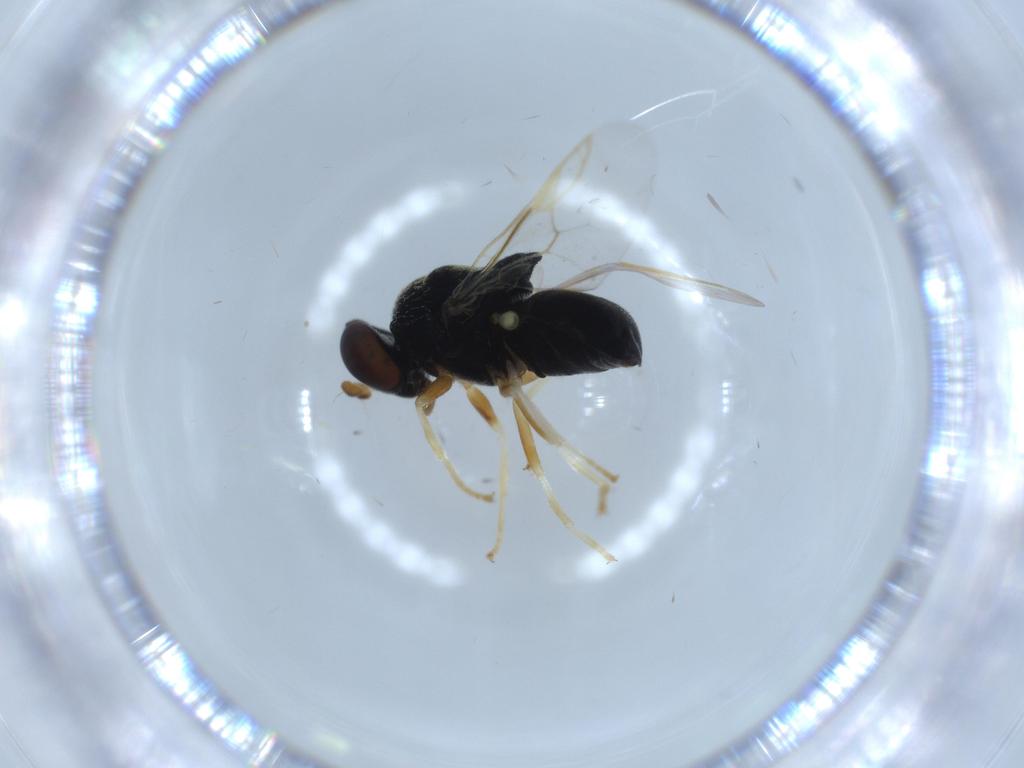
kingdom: Animalia
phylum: Arthropoda
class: Insecta
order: Diptera
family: Stratiomyidae
